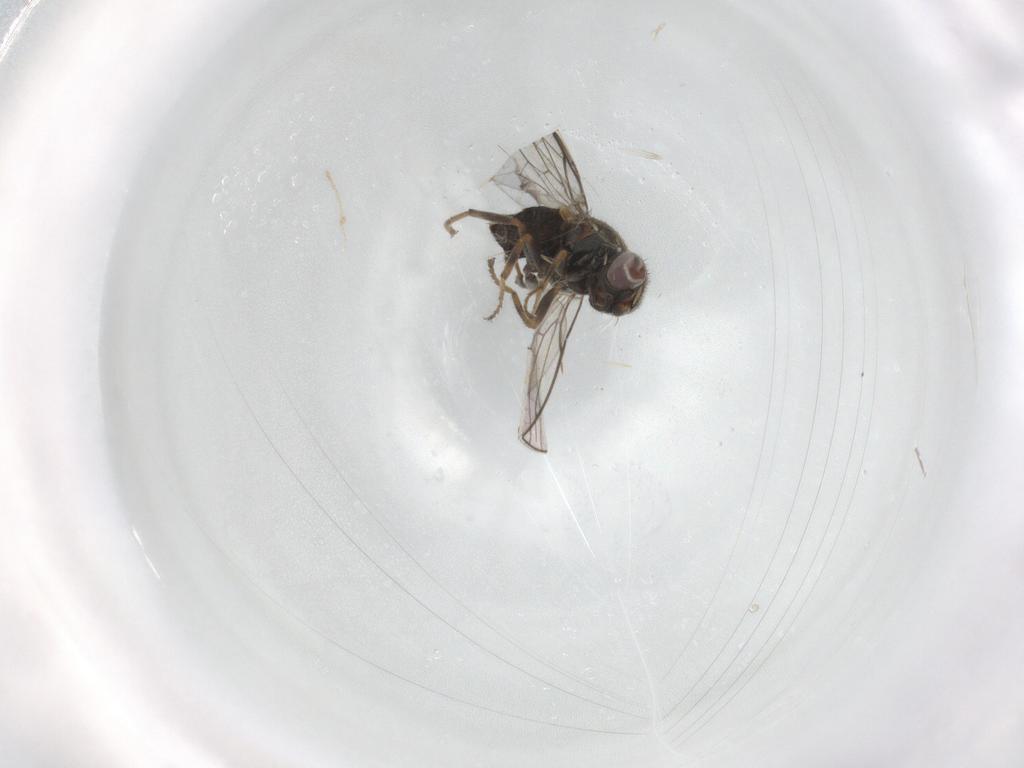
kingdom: Animalia
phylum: Arthropoda
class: Insecta
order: Diptera
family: Chloropidae
